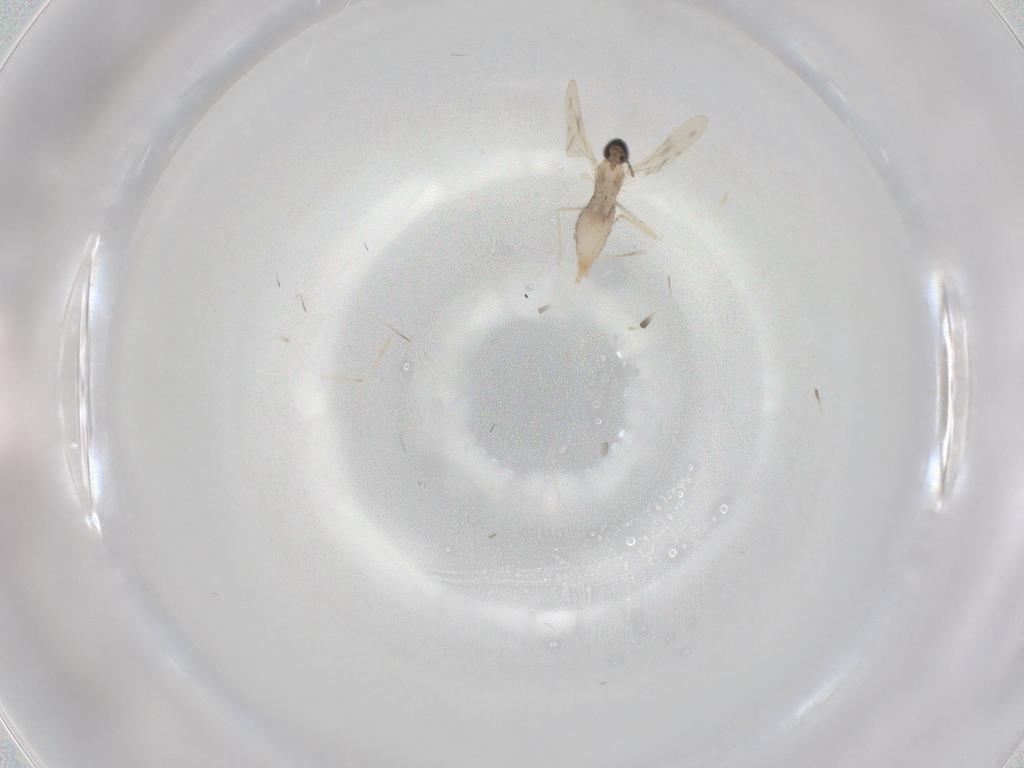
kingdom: Animalia
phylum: Arthropoda
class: Insecta
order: Diptera
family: Cecidomyiidae
